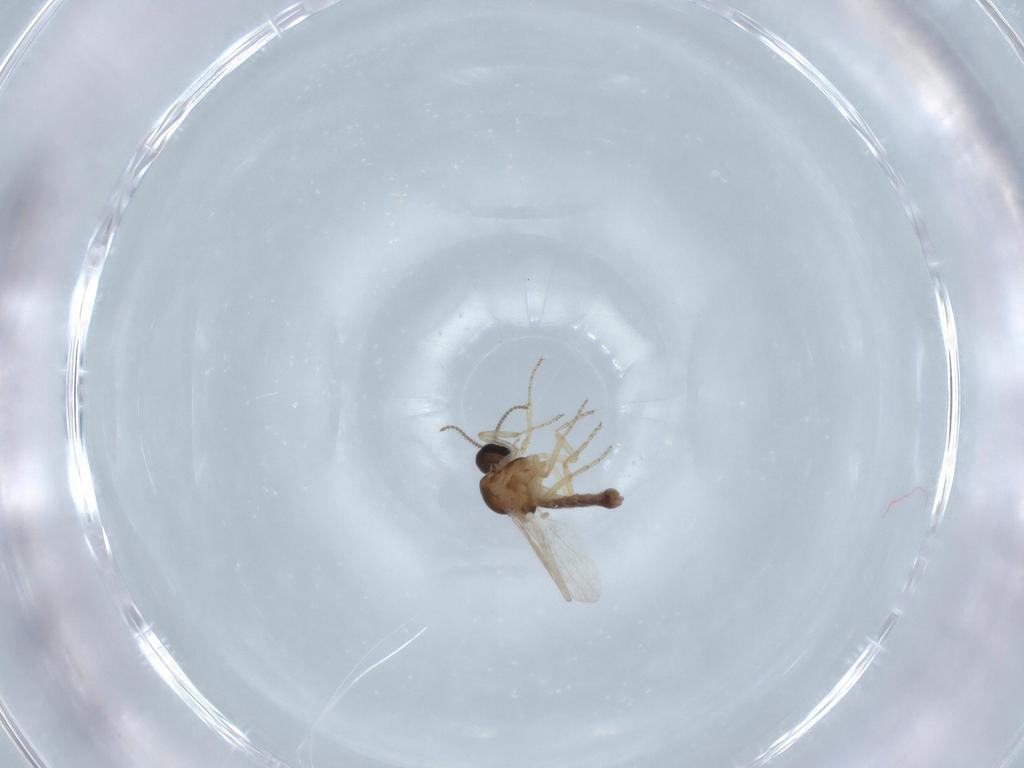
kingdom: Animalia
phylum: Arthropoda
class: Insecta
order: Diptera
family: Ceratopogonidae
